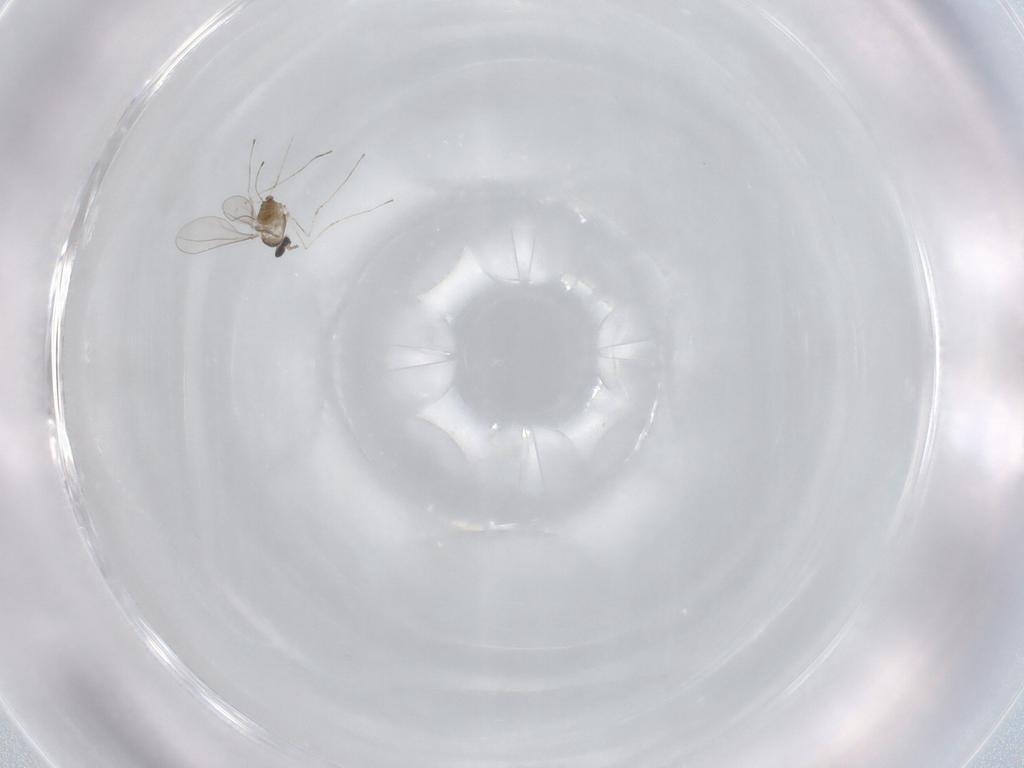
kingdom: Animalia
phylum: Arthropoda
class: Insecta
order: Diptera
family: Cecidomyiidae
